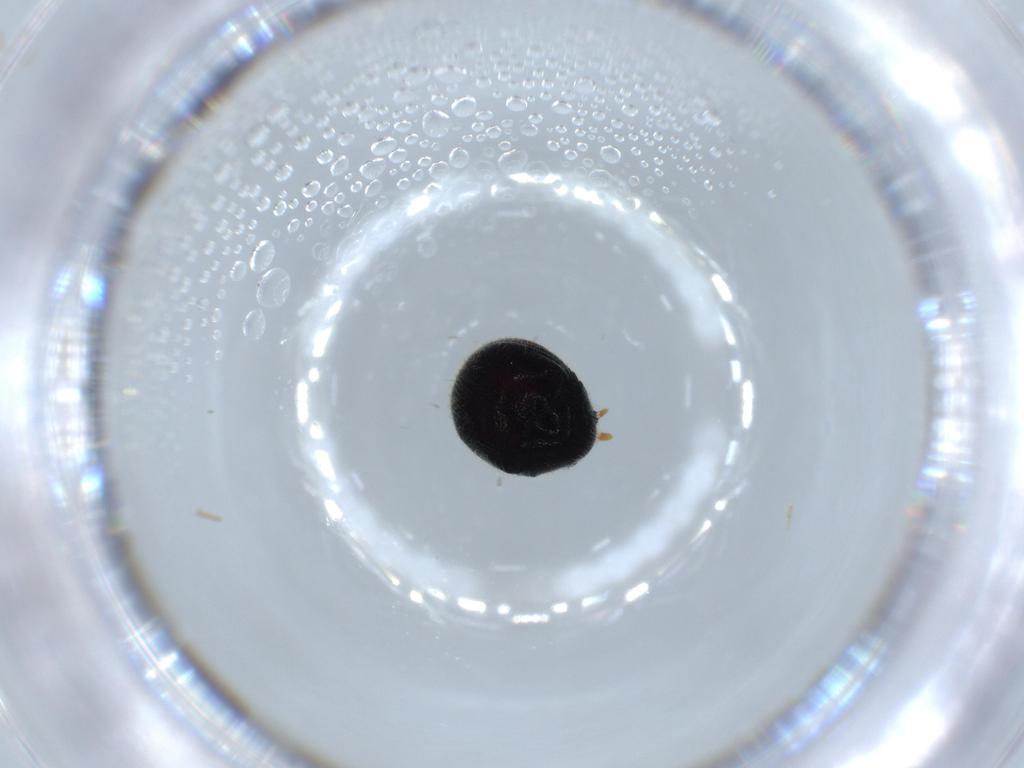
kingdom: Animalia
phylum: Arthropoda
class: Insecta
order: Coleoptera
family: Ptinidae
